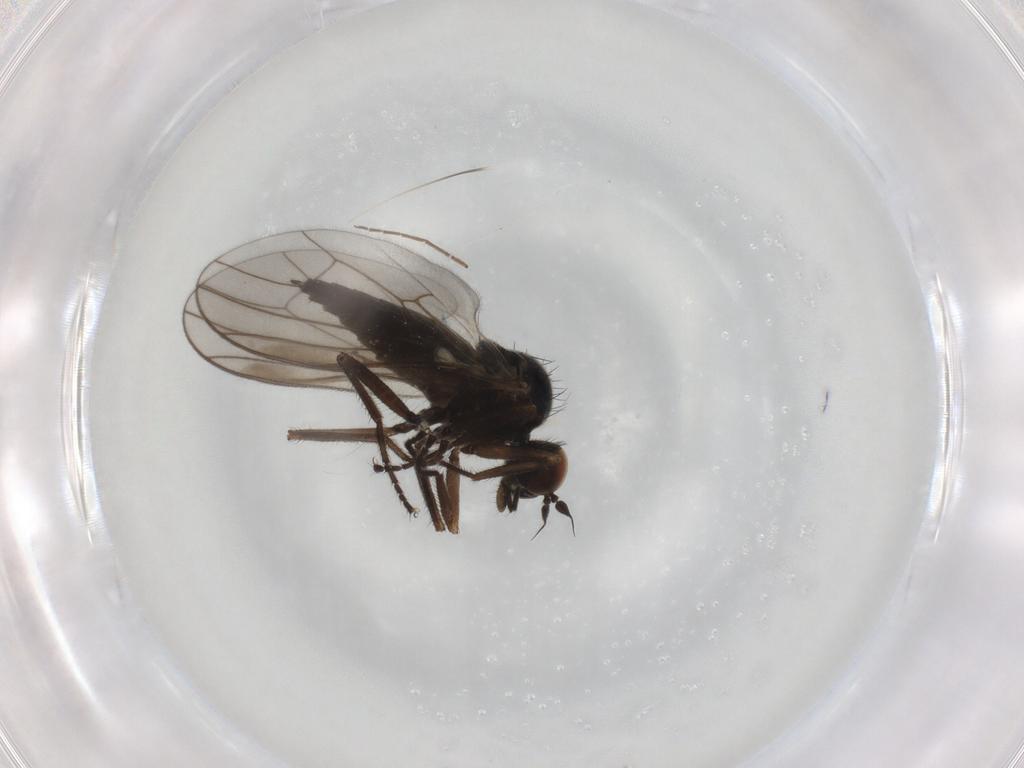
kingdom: Animalia
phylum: Arthropoda
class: Insecta
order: Diptera
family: Hybotidae
